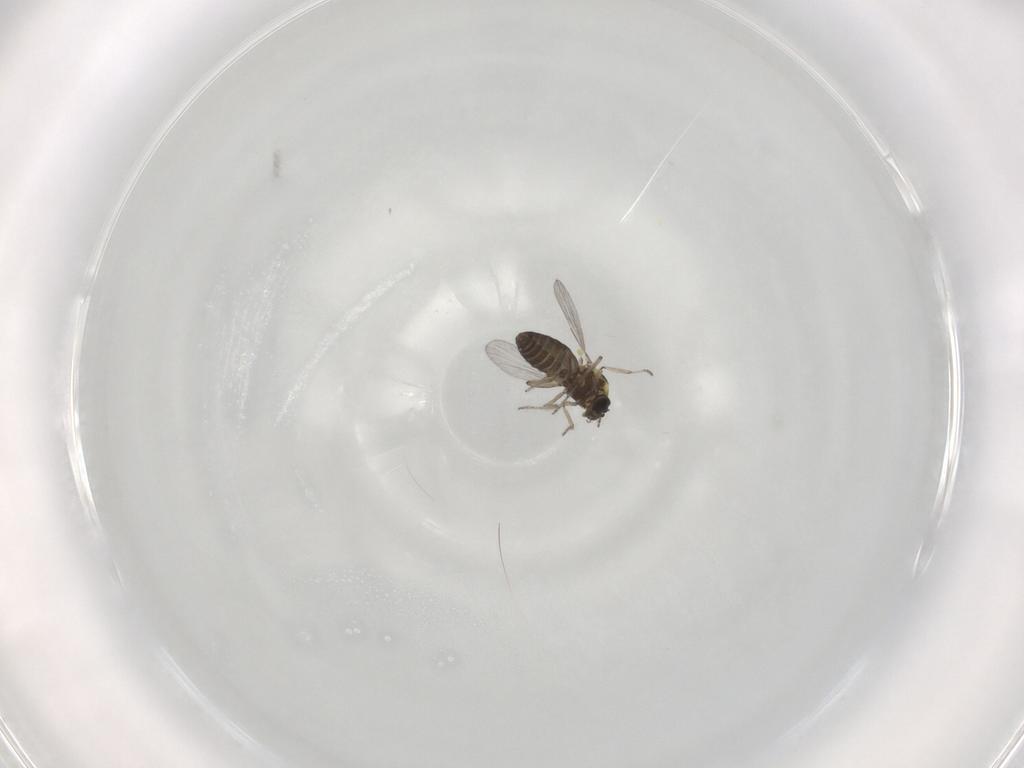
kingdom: Animalia
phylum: Arthropoda
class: Insecta
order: Diptera
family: Ceratopogonidae
